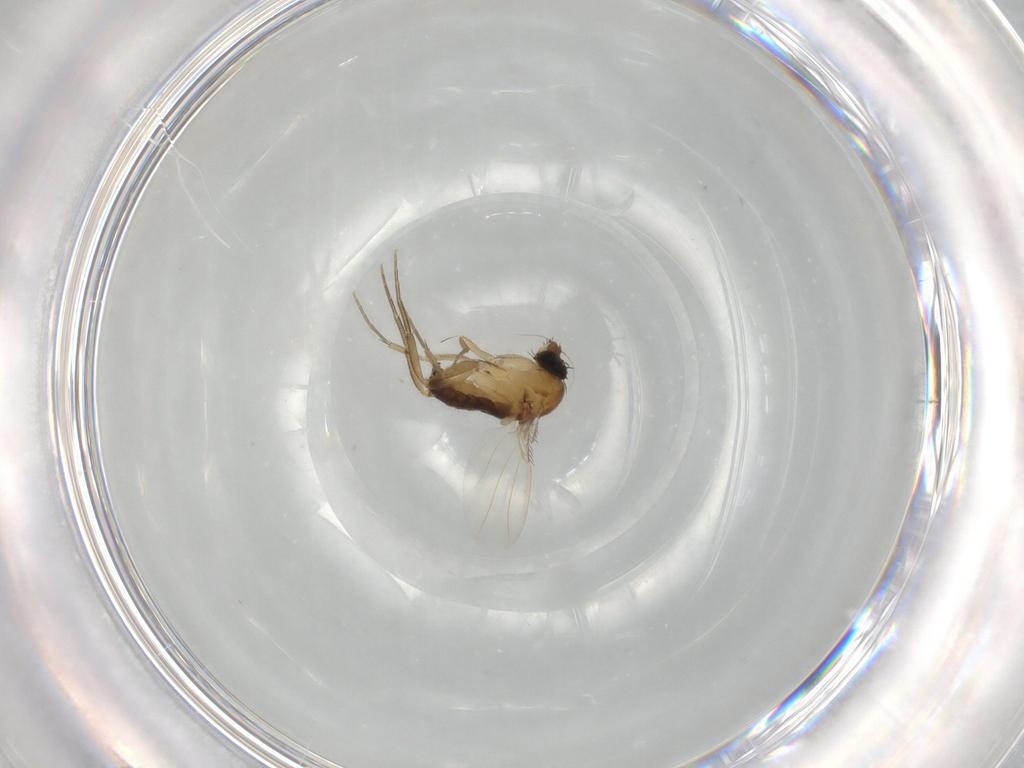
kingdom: Animalia
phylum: Arthropoda
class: Insecta
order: Diptera
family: Phoridae
